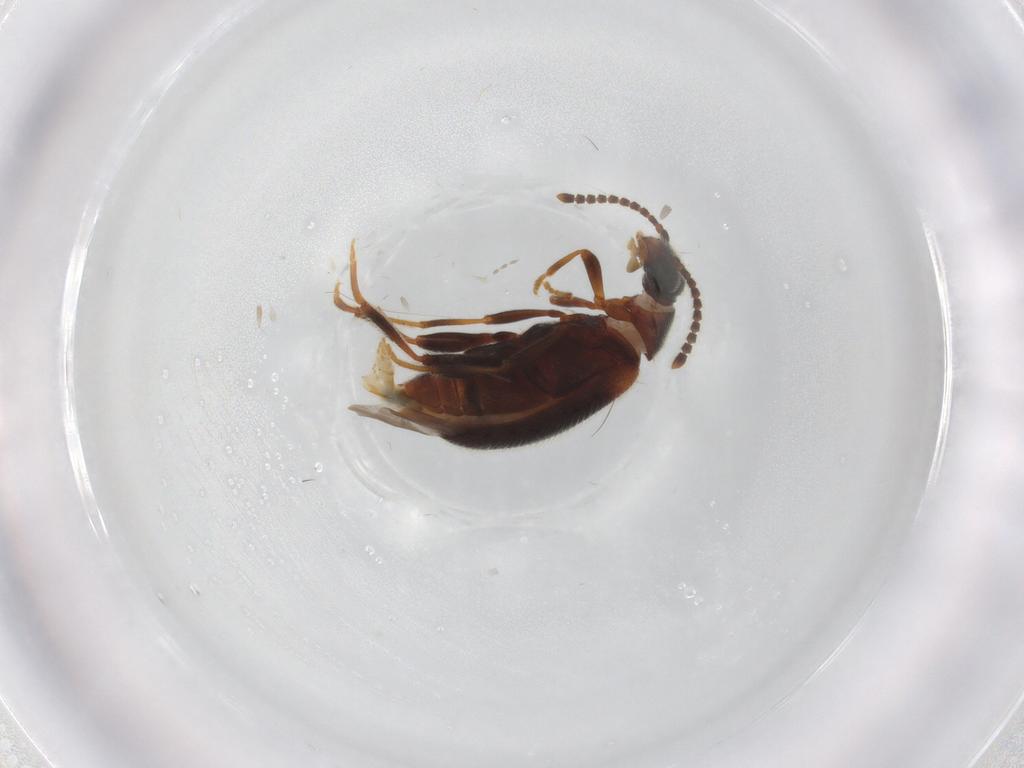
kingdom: Animalia
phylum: Arthropoda
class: Insecta
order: Coleoptera
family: Aderidae
